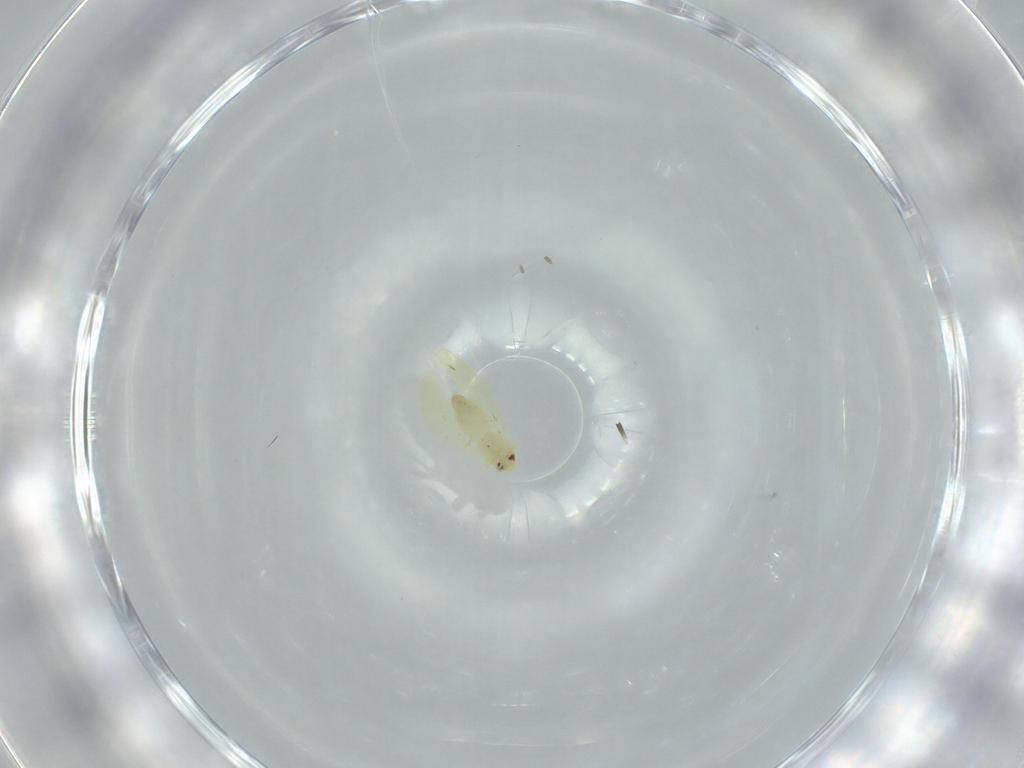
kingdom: Animalia
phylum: Arthropoda
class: Insecta
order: Hemiptera
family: Aleyrodidae
